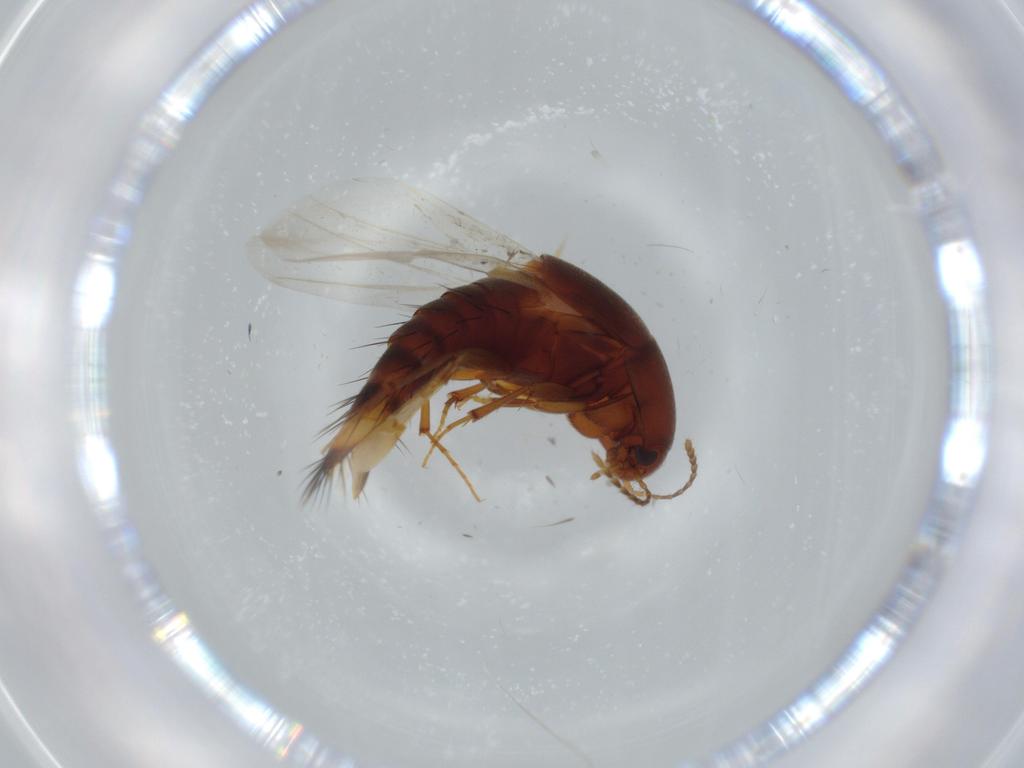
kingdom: Animalia
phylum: Arthropoda
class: Insecta
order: Coleoptera
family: Staphylinidae
